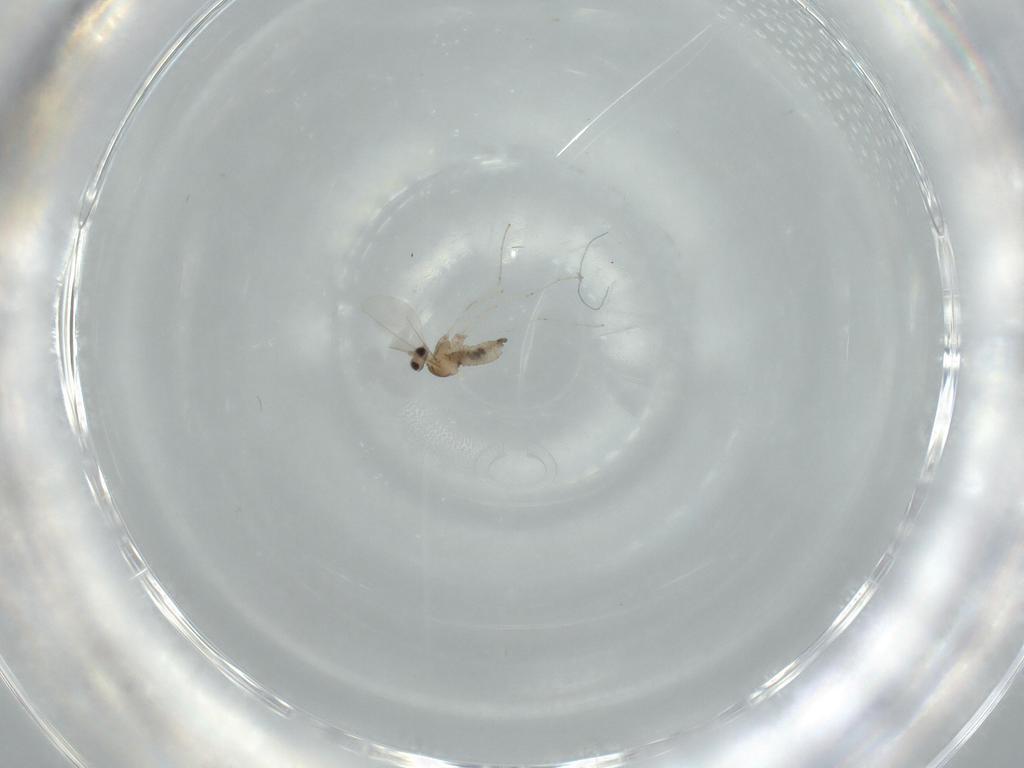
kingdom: Animalia
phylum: Arthropoda
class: Insecta
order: Diptera
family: Cecidomyiidae
